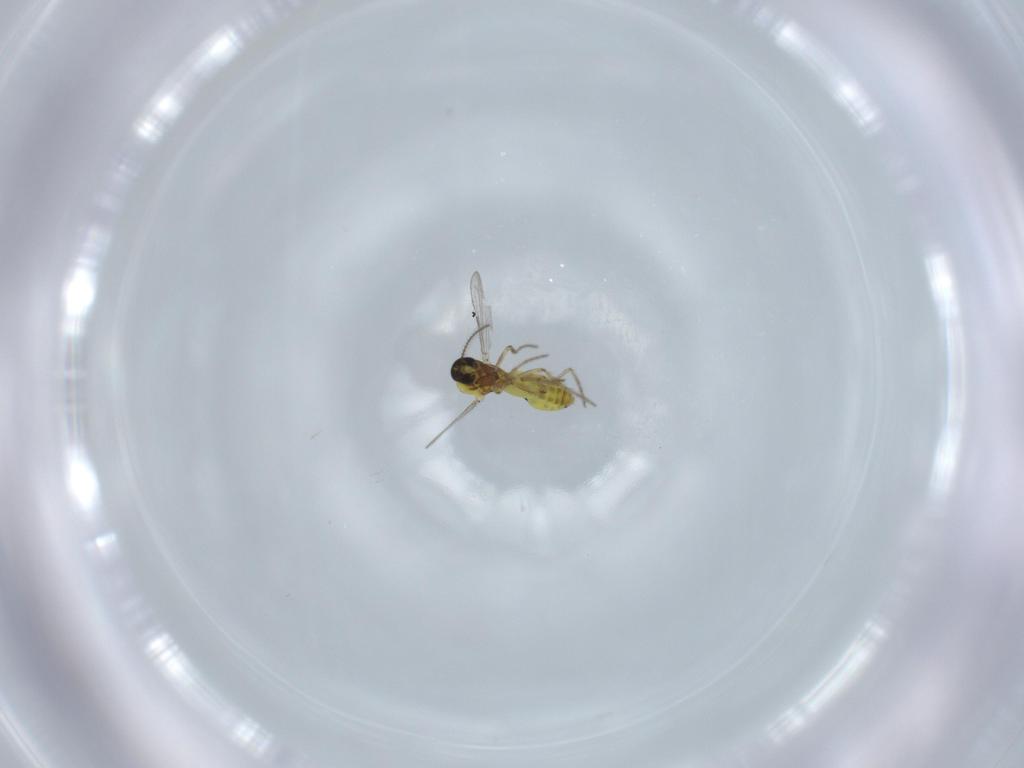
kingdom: Animalia
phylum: Arthropoda
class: Insecta
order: Diptera
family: Ceratopogonidae
